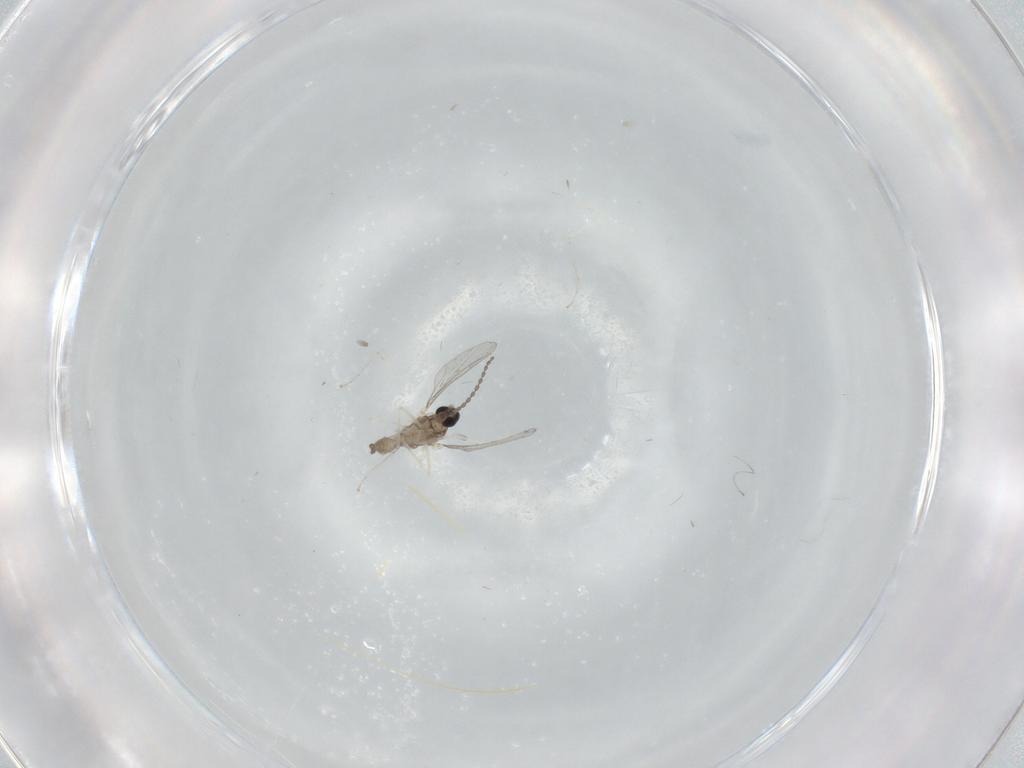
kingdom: Animalia
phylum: Arthropoda
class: Insecta
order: Diptera
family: Cecidomyiidae
